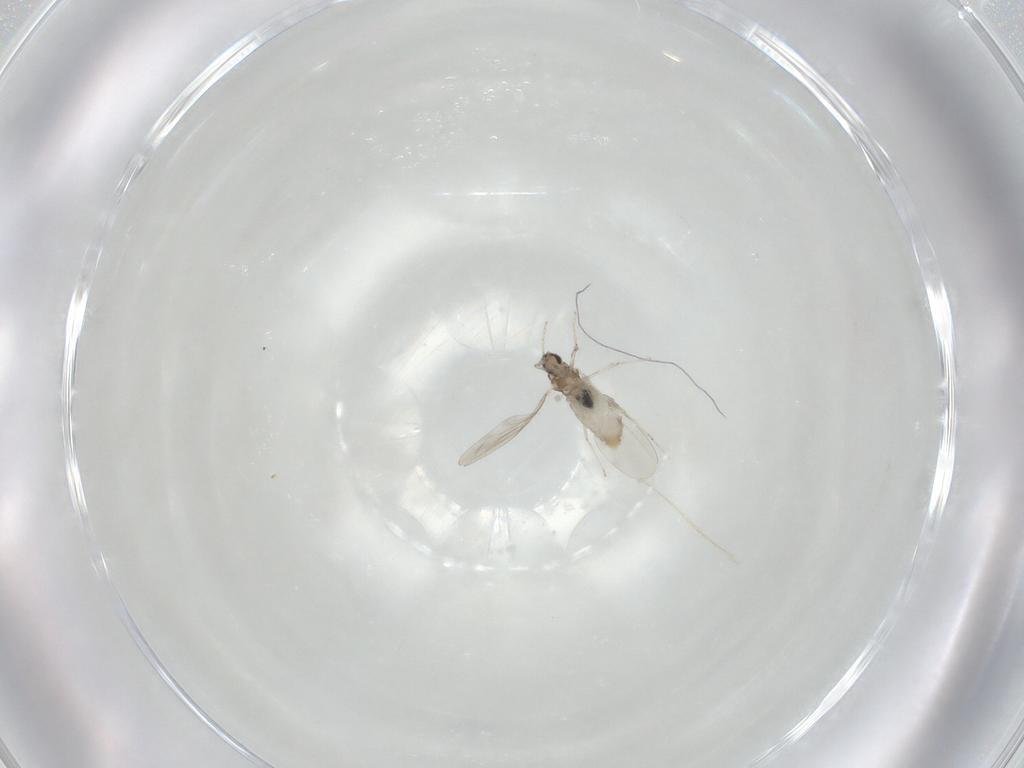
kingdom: Animalia
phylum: Arthropoda
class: Insecta
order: Diptera
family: Cecidomyiidae
